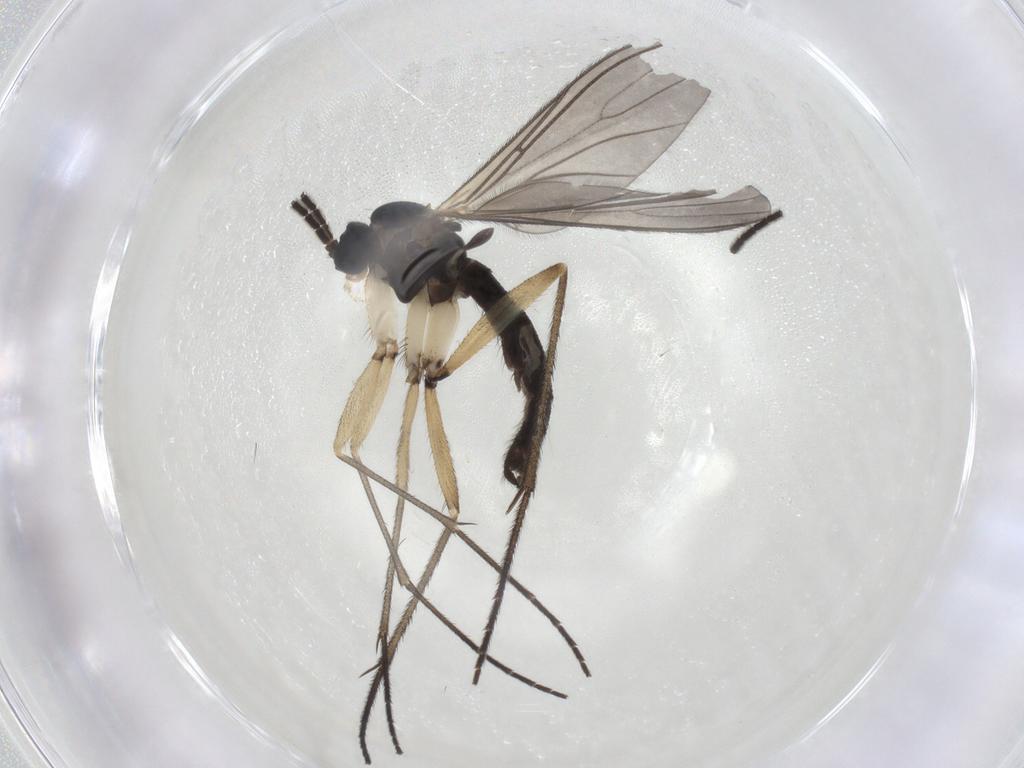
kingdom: Animalia
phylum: Arthropoda
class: Insecta
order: Diptera
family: Sciaridae
